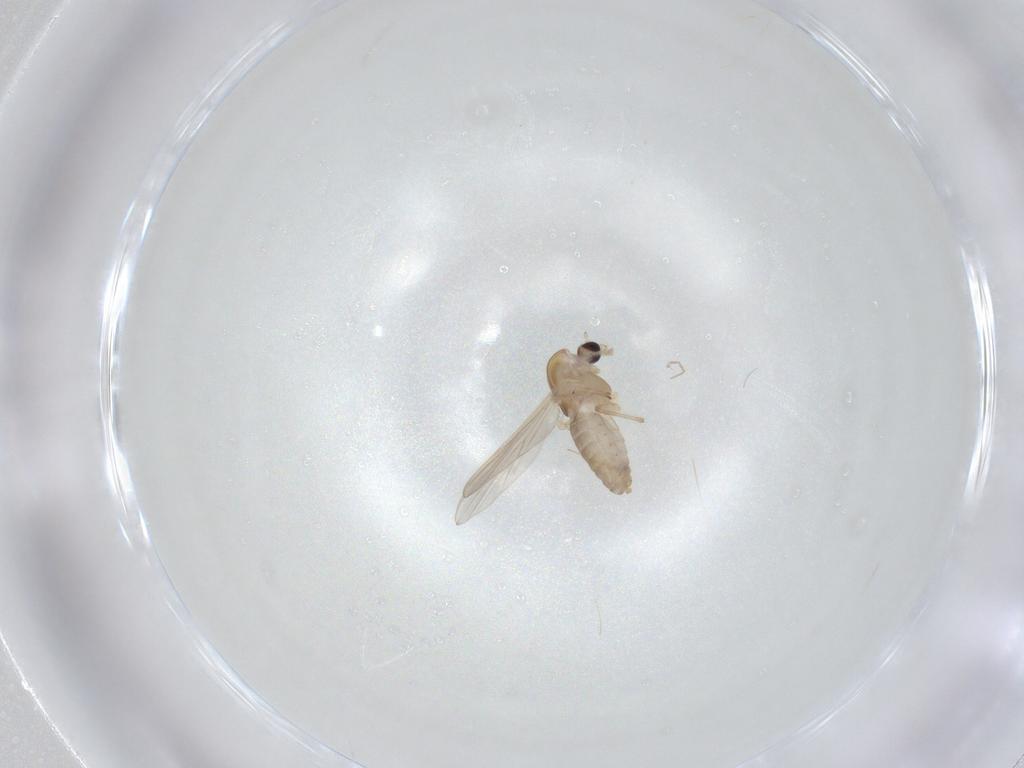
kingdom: Animalia
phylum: Arthropoda
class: Insecta
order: Diptera
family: Chironomidae
